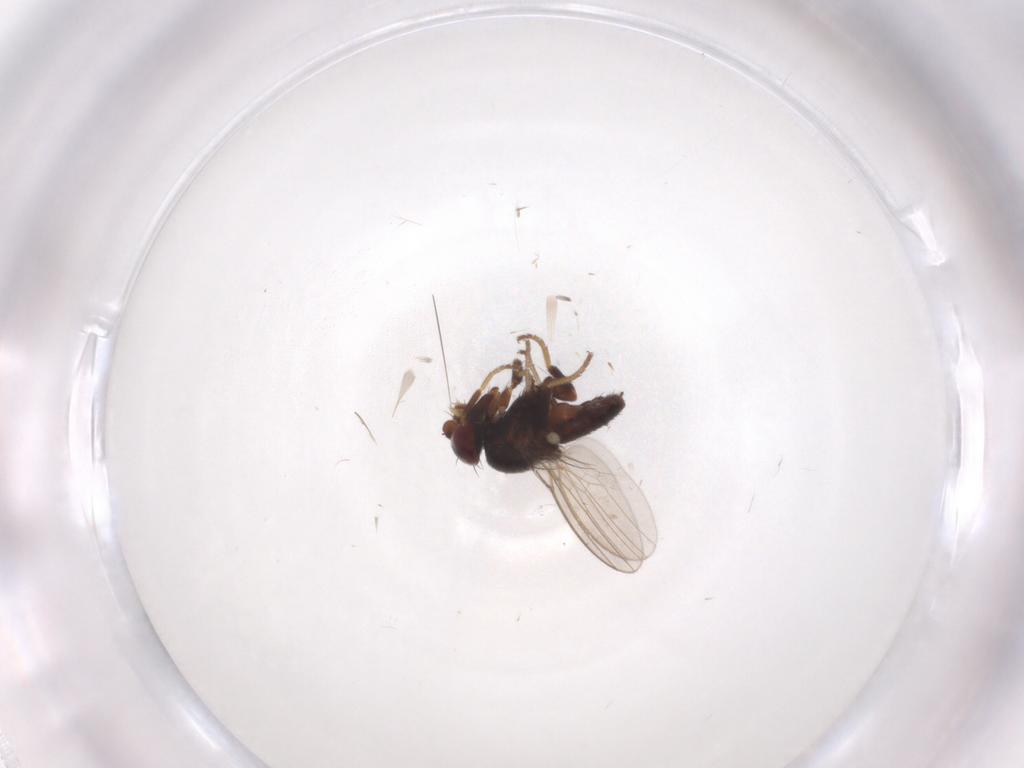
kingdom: Animalia
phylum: Arthropoda
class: Insecta
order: Diptera
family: Milichiidae
